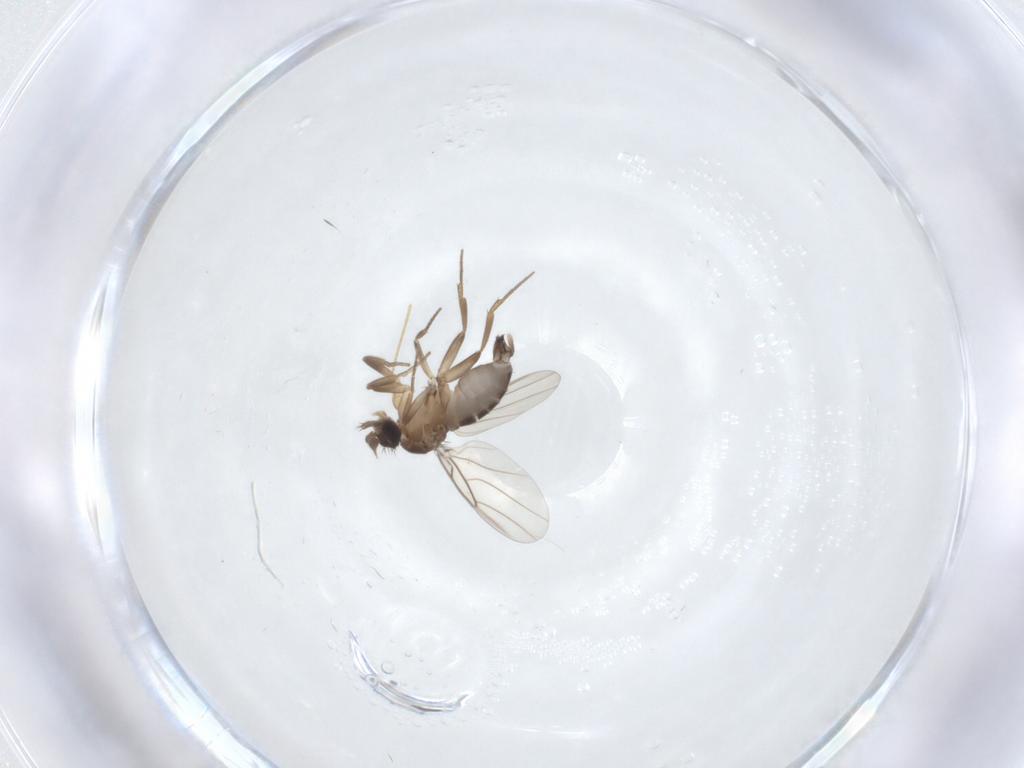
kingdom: Animalia
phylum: Arthropoda
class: Insecta
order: Diptera
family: Phoridae
